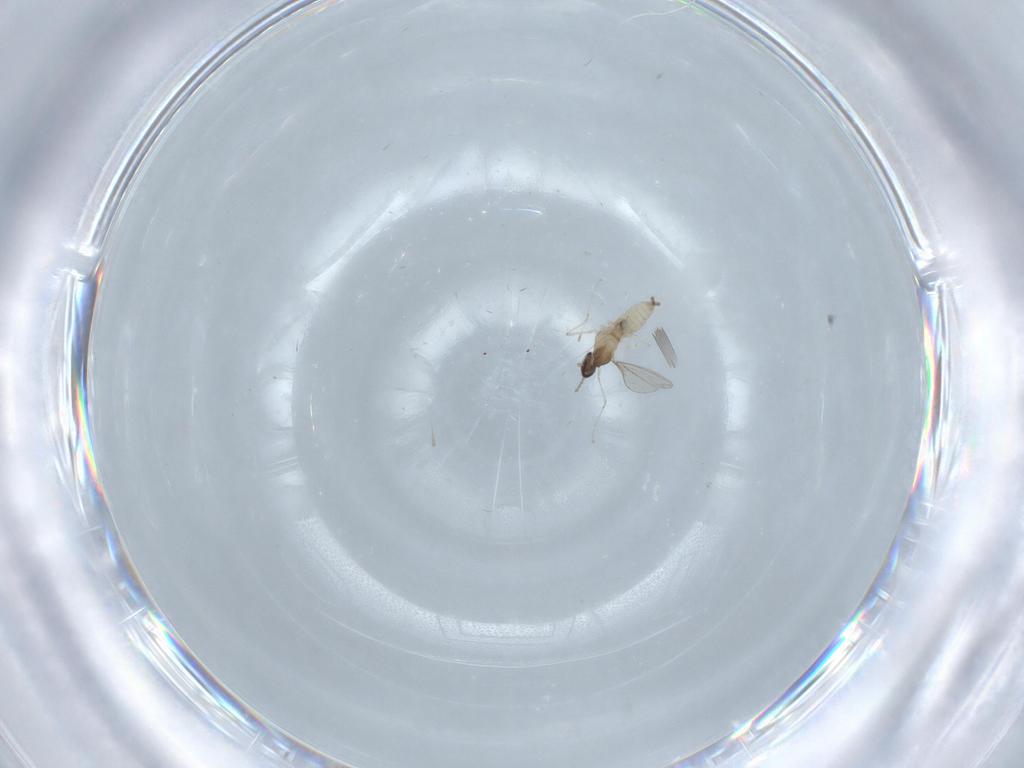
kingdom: Animalia
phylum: Arthropoda
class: Insecta
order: Diptera
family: Cecidomyiidae
